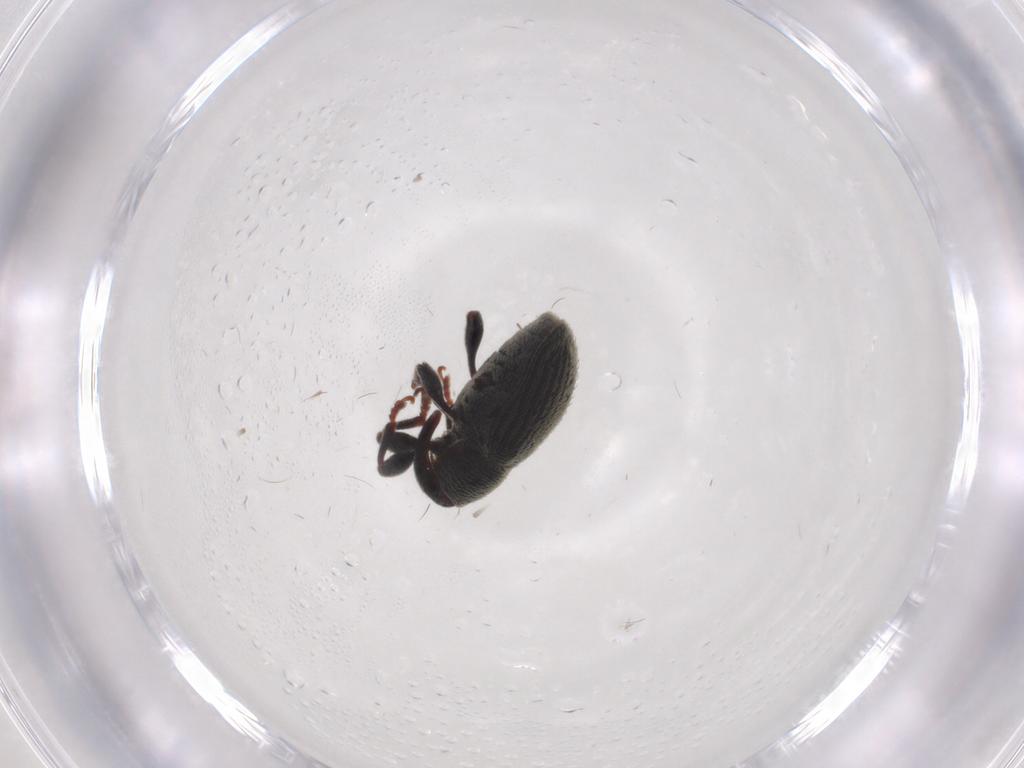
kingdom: Animalia
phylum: Arthropoda
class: Insecta
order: Coleoptera
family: Curculionidae
